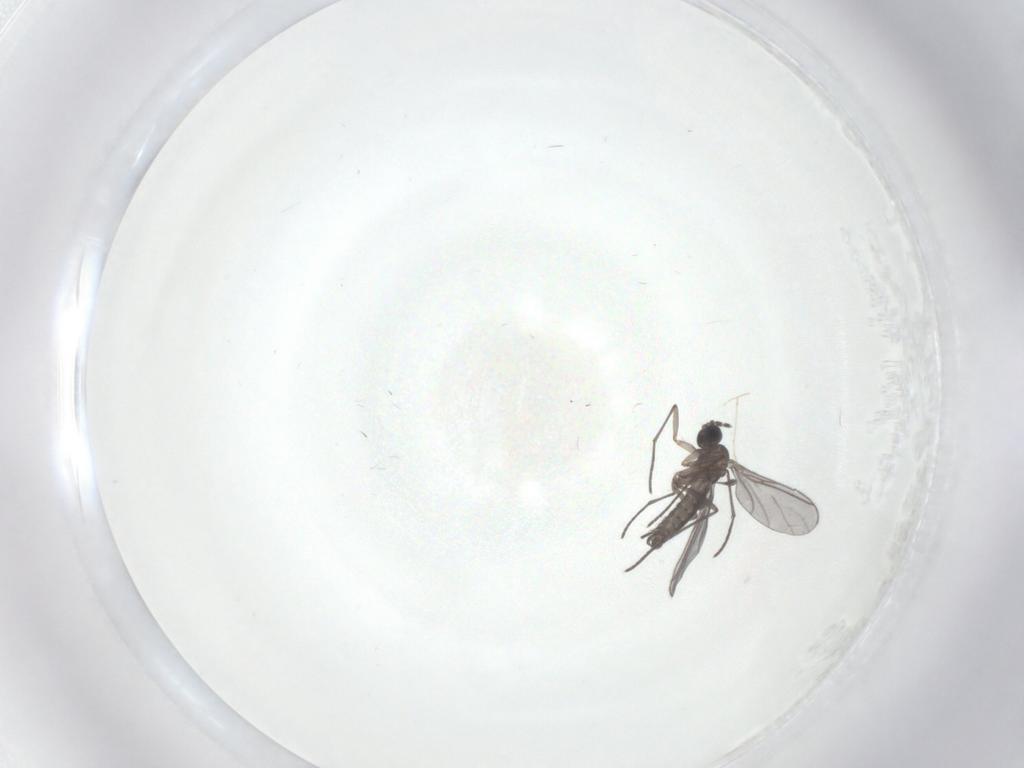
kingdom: Animalia
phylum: Arthropoda
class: Insecta
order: Diptera
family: Cecidomyiidae
